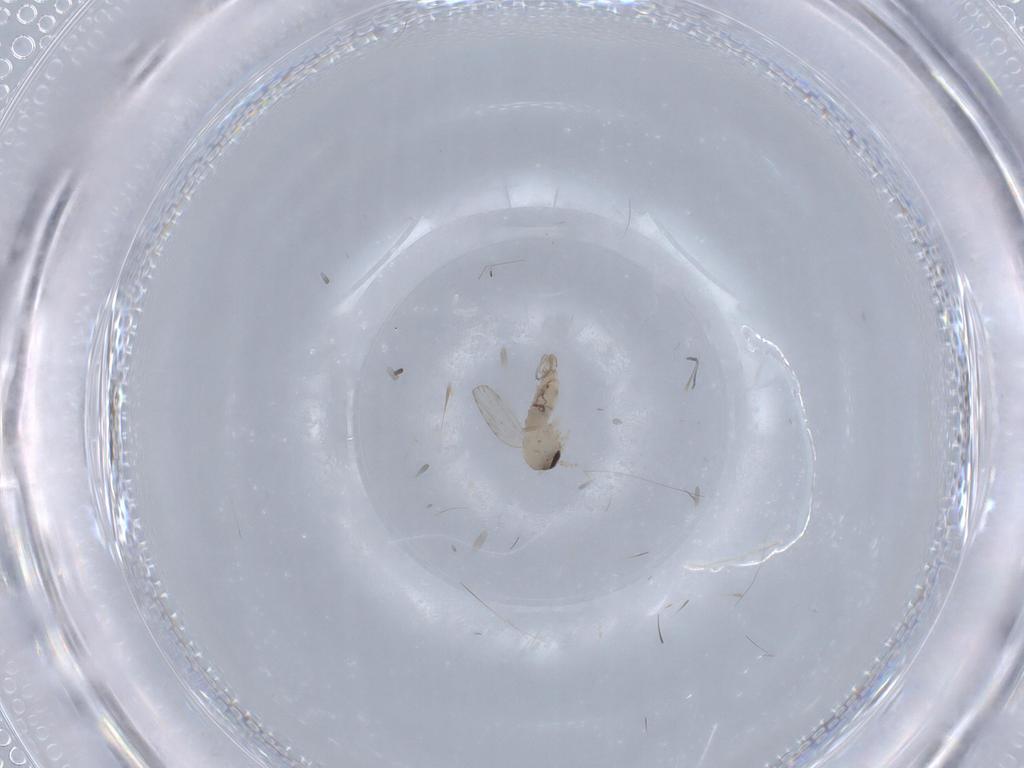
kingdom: Animalia
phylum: Arthropoda
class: Insecta
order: Diptera
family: Psychodidae
